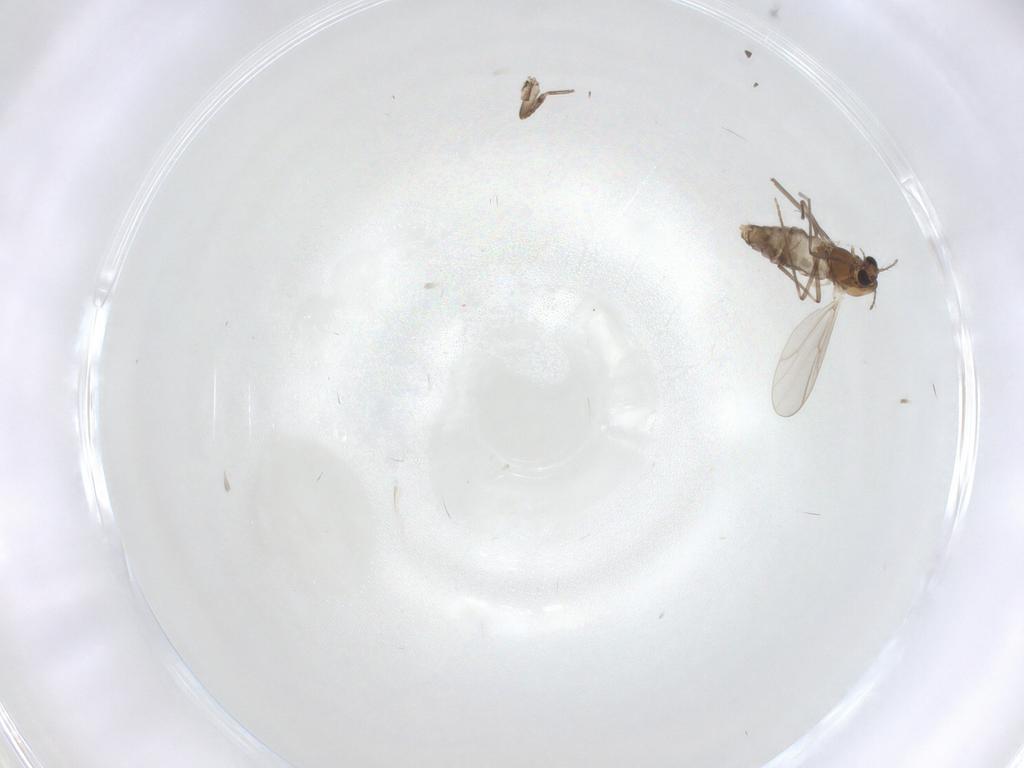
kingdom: Animalia
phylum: Arthropoda
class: Insecta
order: Diptera
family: Chironomidae
